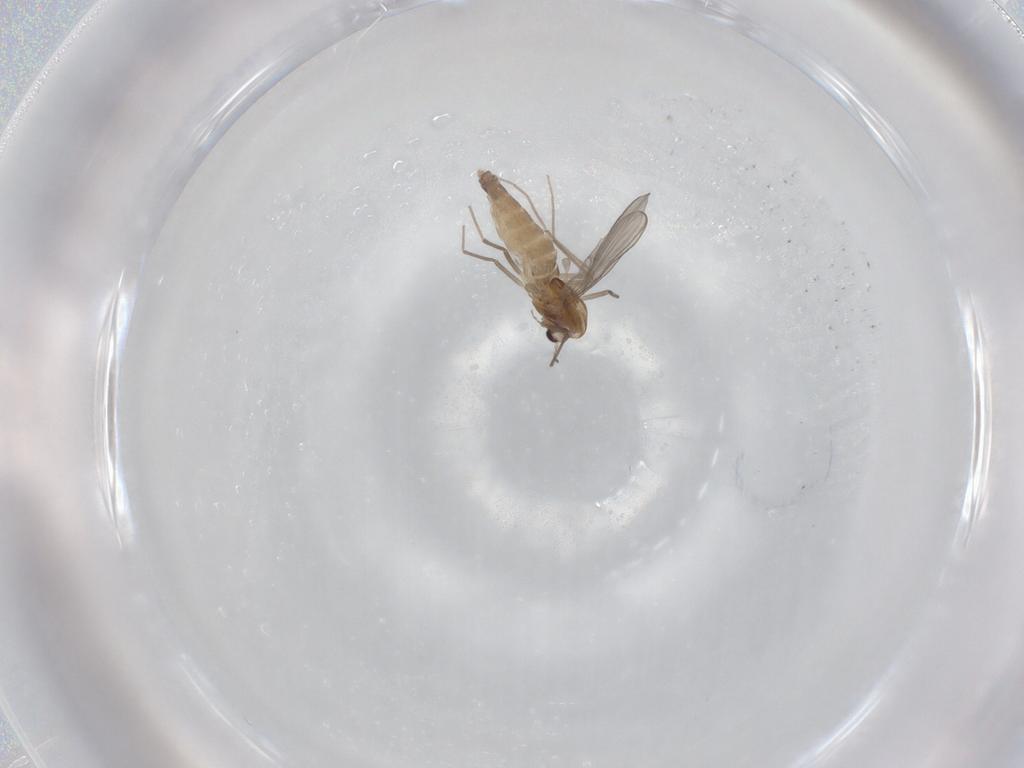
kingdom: Animalia
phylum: Arthropoda
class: Insecta
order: Diptera
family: Chironomidae
